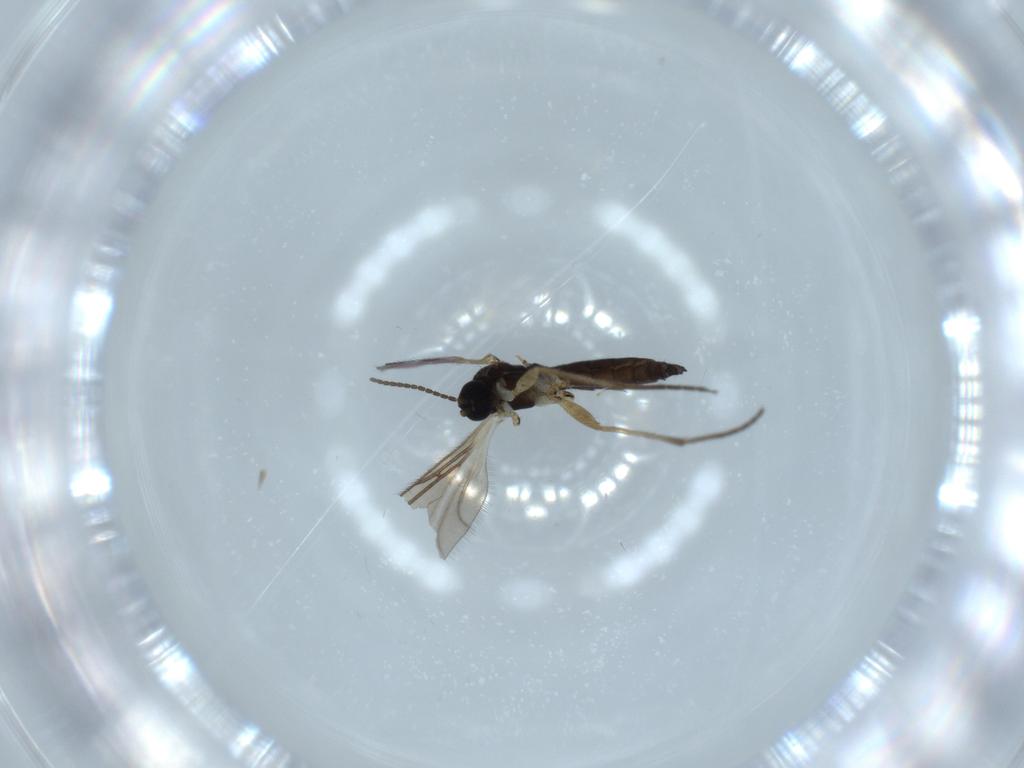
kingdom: Animalia
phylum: Arthropoda
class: Insecta
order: Diptera
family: Sciaridae
